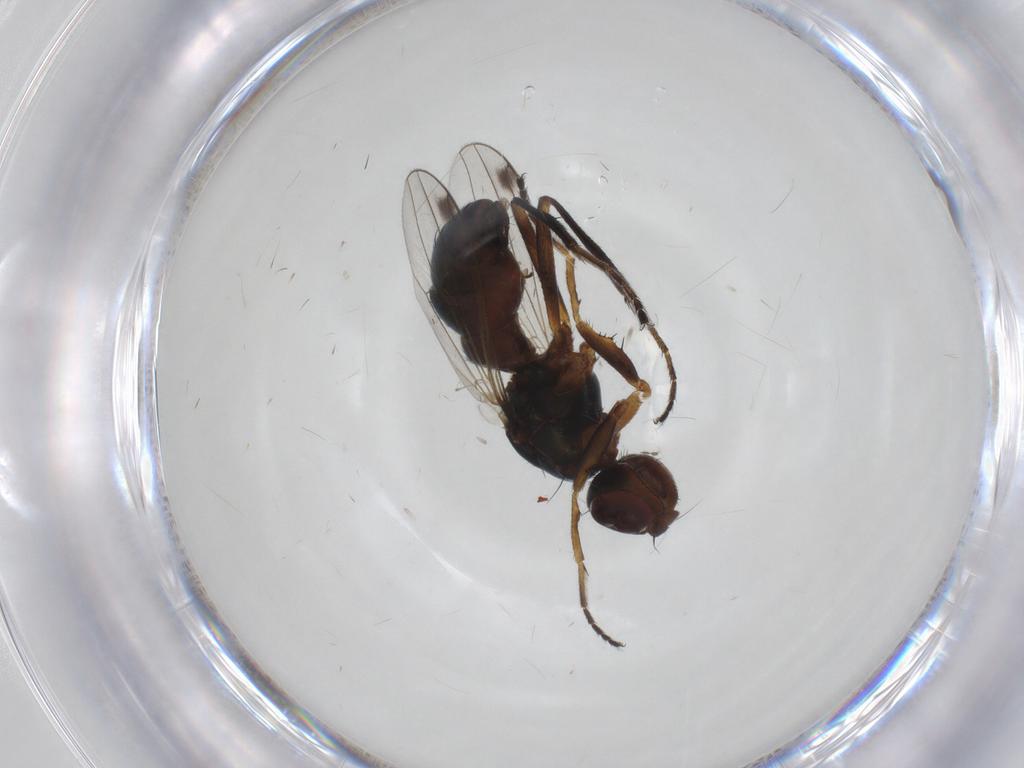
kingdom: Animalia
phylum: Arthropoda
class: Insecta
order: Diptera
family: Sepsidae
